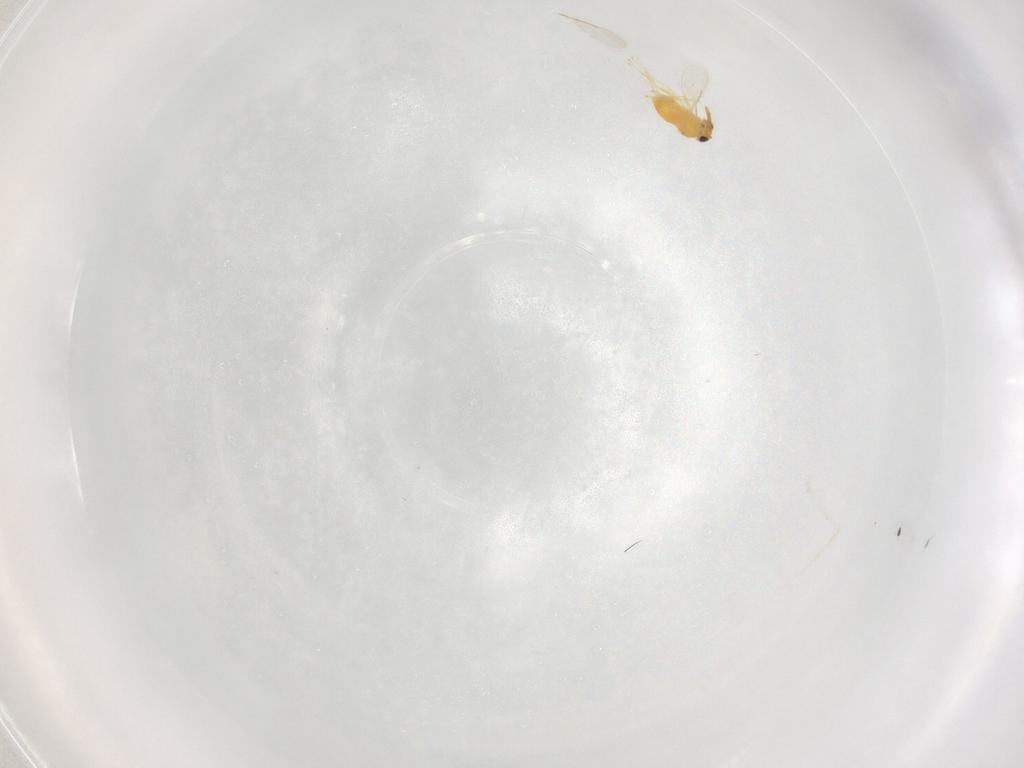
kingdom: Animalia
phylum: Arthropoda
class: Insecta
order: Hymenoptera
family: Aphelinidae
